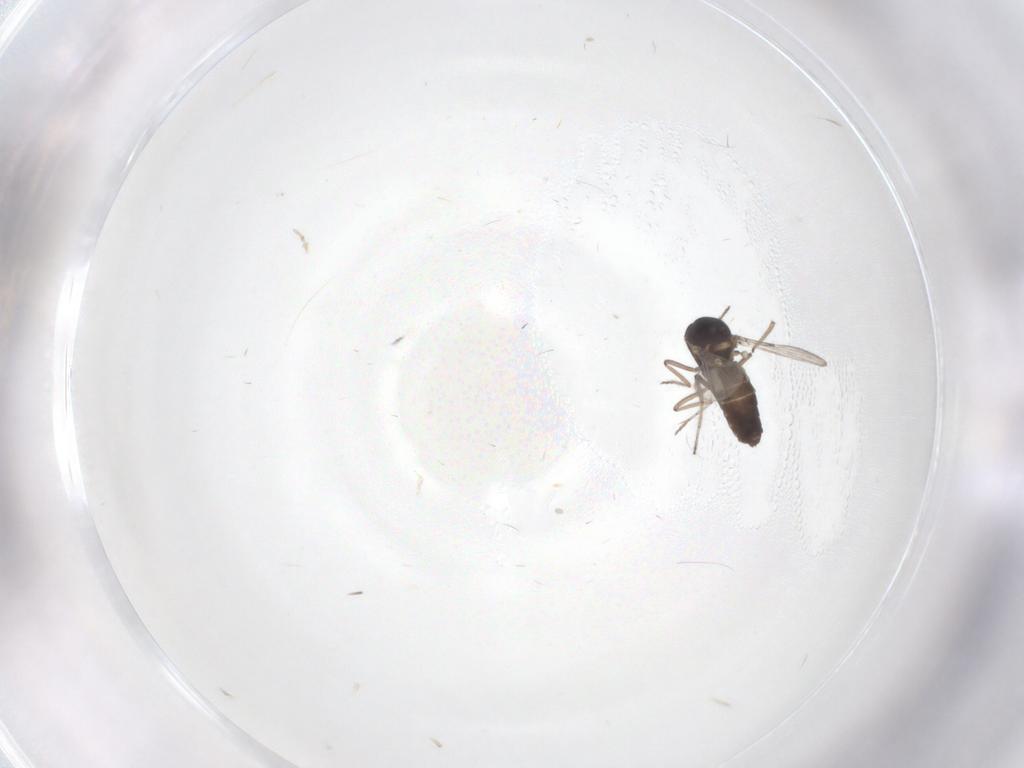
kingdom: Animalia
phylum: Arthropoda
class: Insecta
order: Diptera
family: Ceratopogonidae
